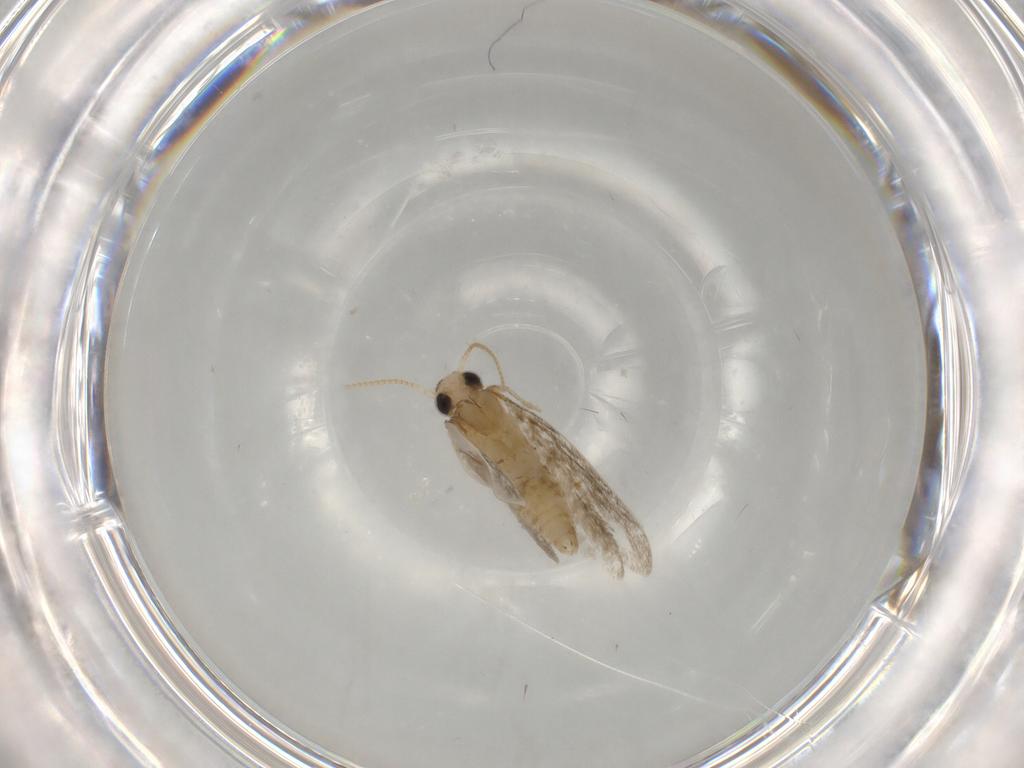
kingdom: Animalia
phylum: Arthropoda
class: Insecta
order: Lepidoptera
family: Psychidae
